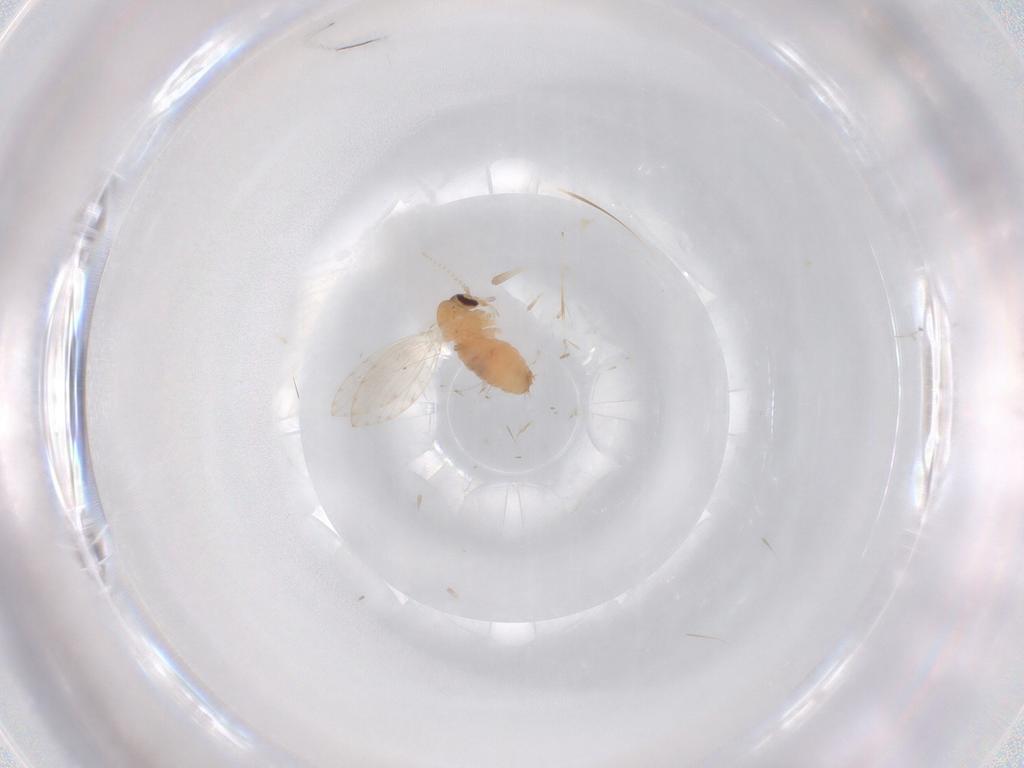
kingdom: Animalia
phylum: Arthropoda
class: Insecta
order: Diptera
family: Psychodidae
